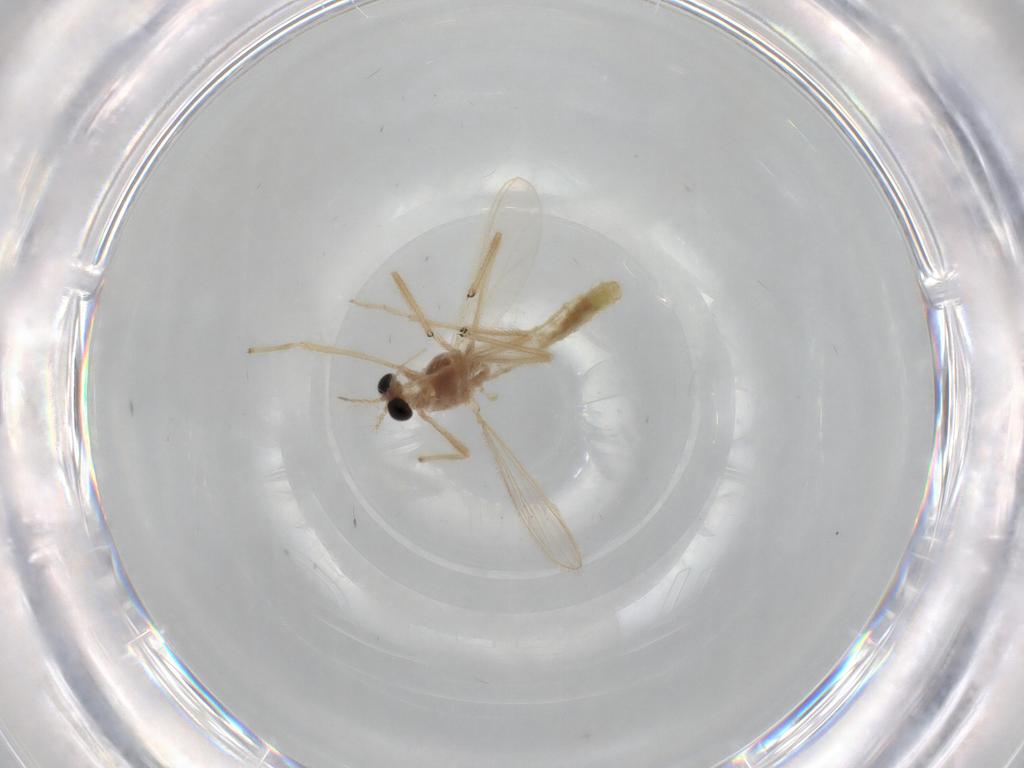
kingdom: Animalia
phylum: Arthropoda
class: Insecta
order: Diptera
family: Chironomidae
